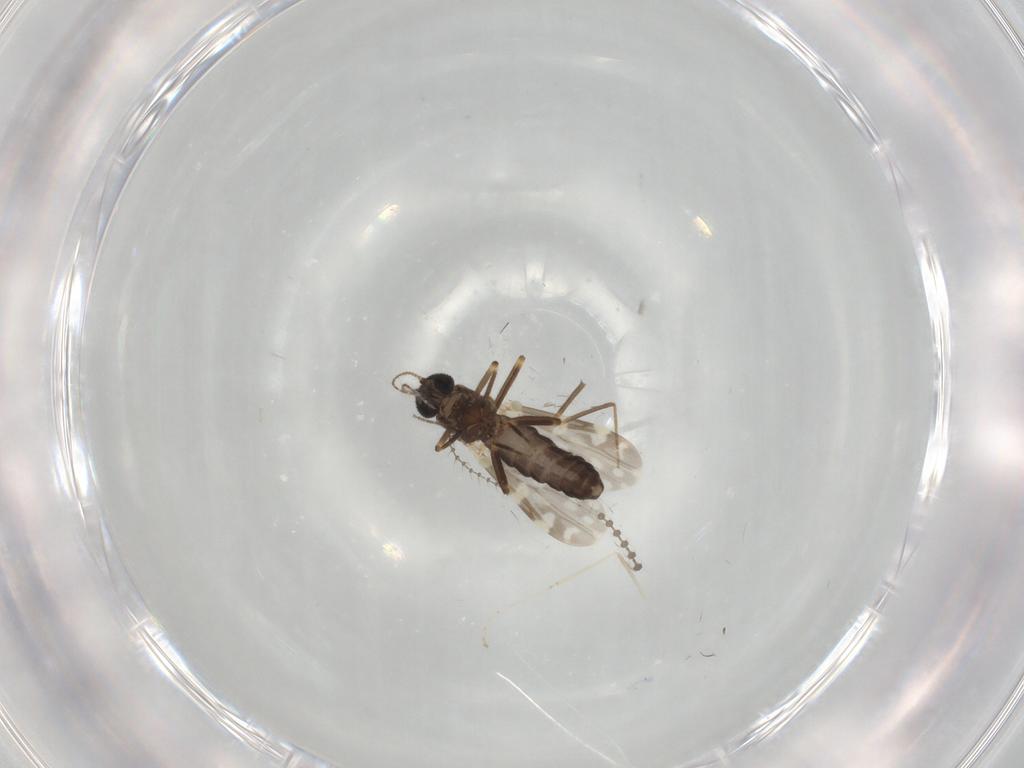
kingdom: Animalia
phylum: Arthropoda
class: Insecta
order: Diptera
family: Ceratopogonidae
